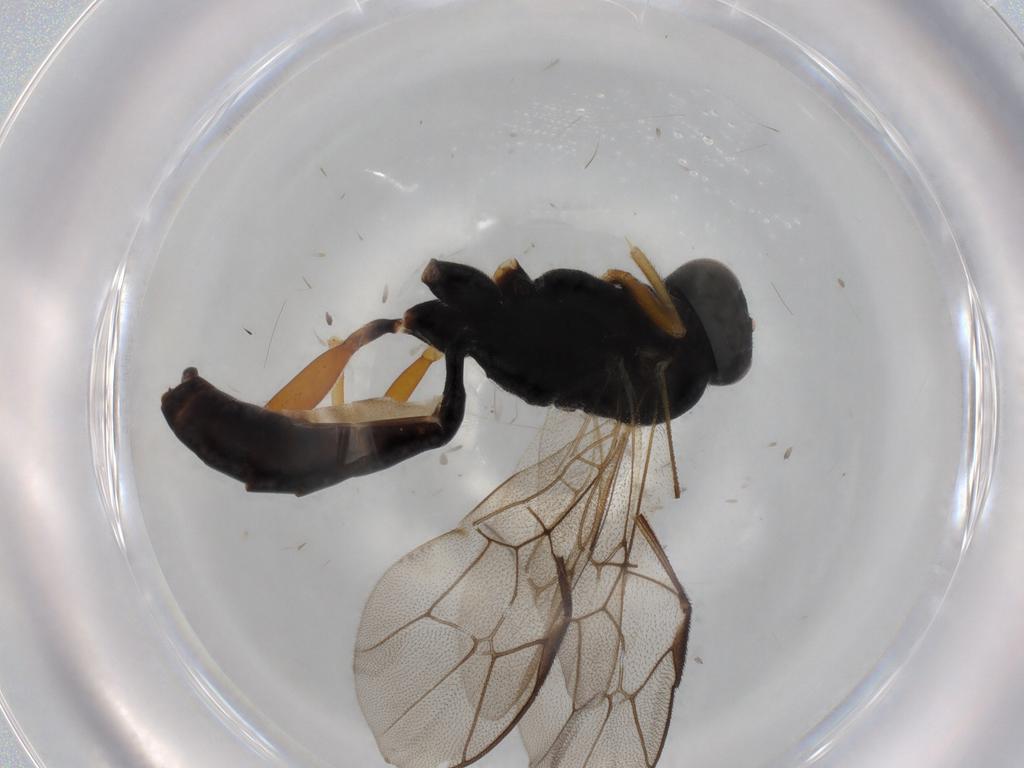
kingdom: Animalia
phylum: Arthropoda
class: Insecta
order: Hymenoptera
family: Ichneumonidae
